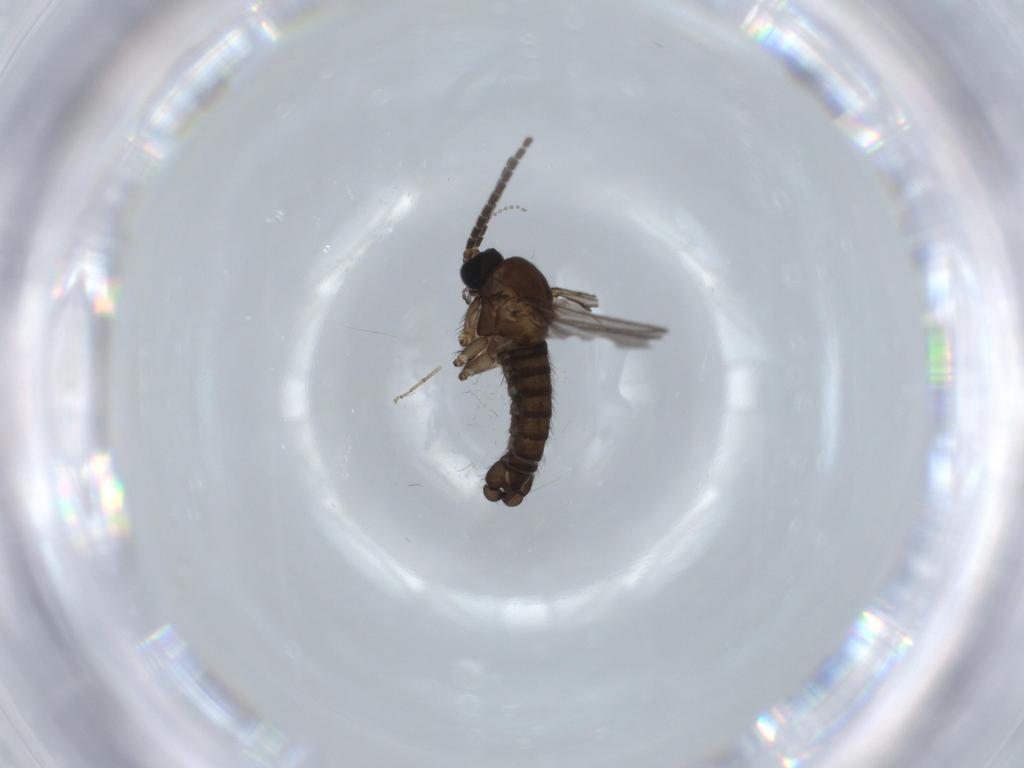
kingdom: Animalia
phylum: Arthropoda
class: Insecta
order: Diptera
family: Sciaridae
